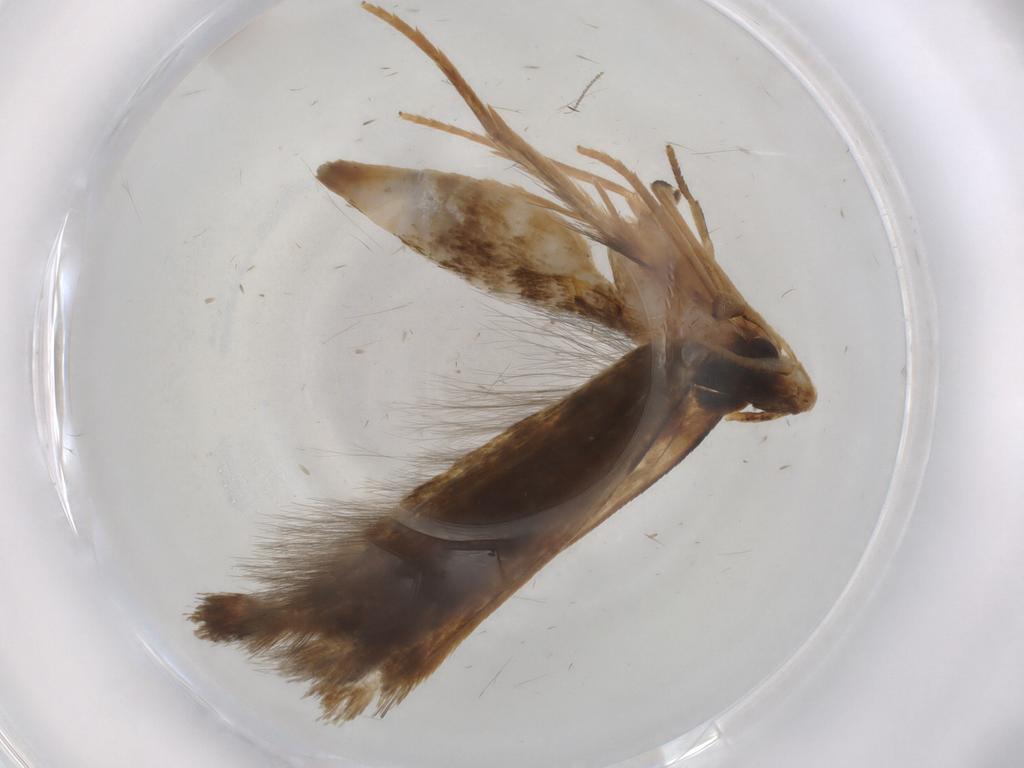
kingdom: Animalia
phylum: Arthropoda
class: Insecta
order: Lepidoptera
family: Tineidae
